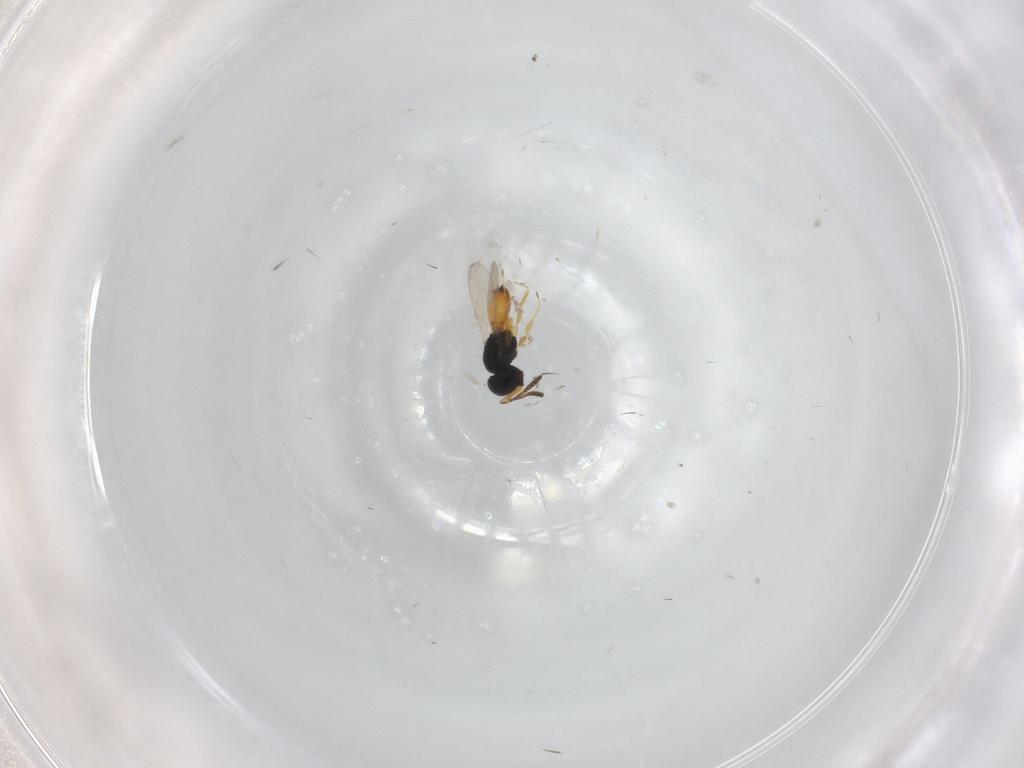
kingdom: Animalia
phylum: Arthropoda
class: Insecta
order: Hymenoptera
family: Scelionidae
